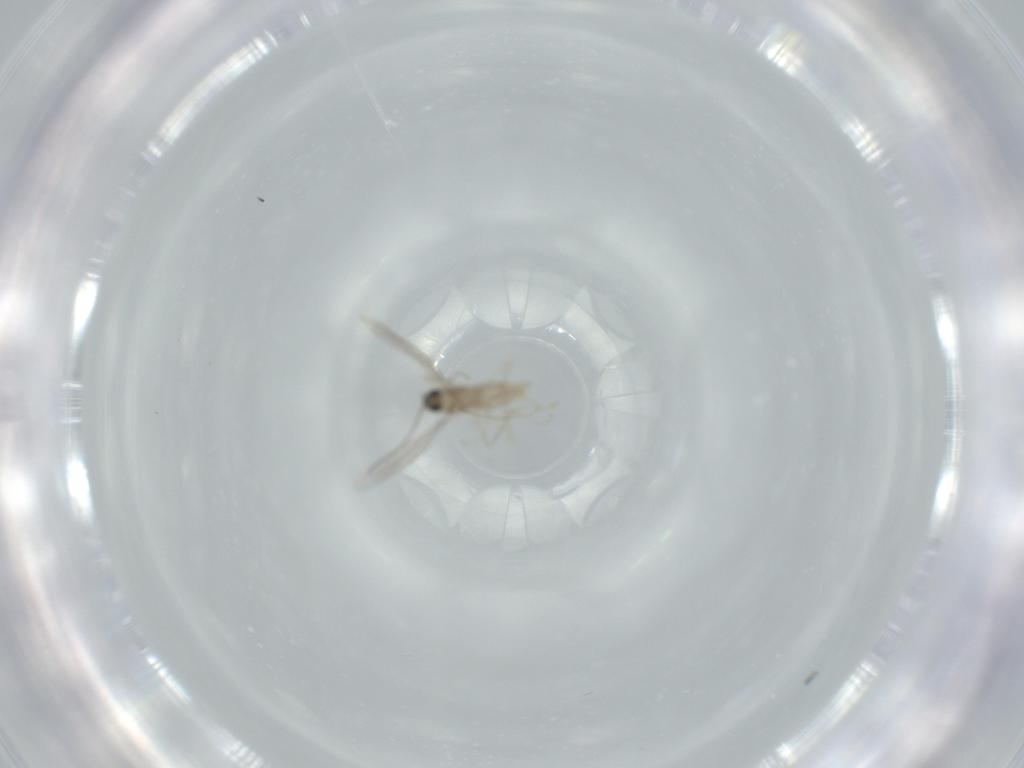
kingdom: Animalia
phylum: Arthropoda
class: Insecta
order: Diptera
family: Cecidomyiidae
